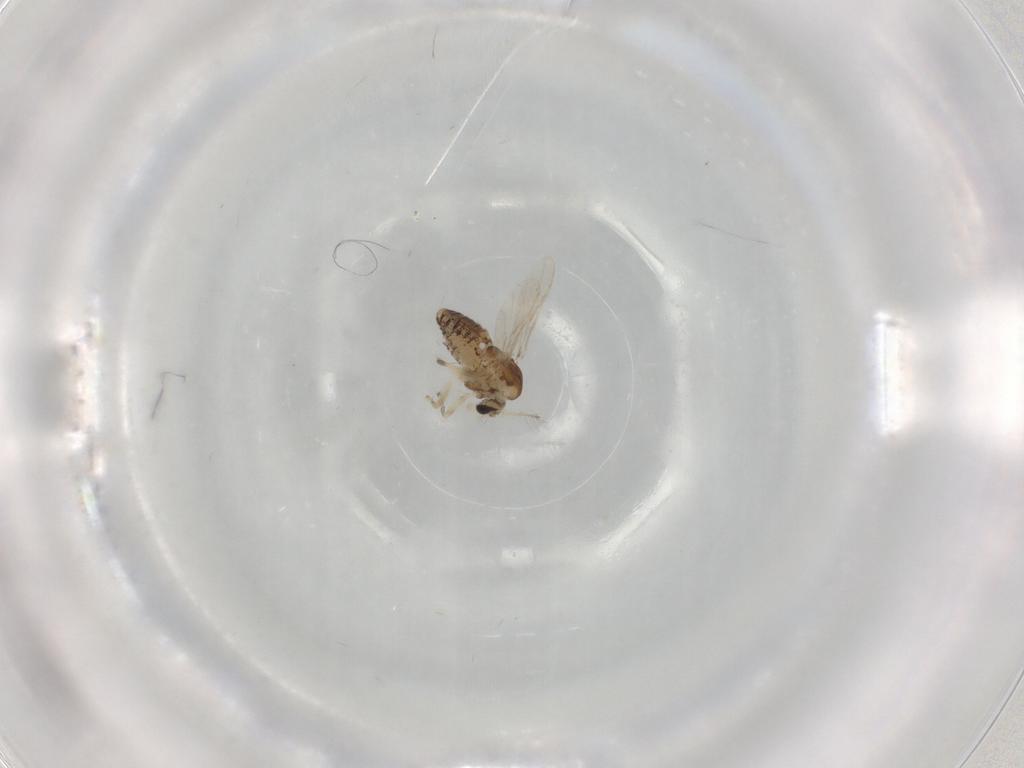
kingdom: Animalia
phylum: Arthropoda
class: Insecta
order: Diptera
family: Chironomidae
